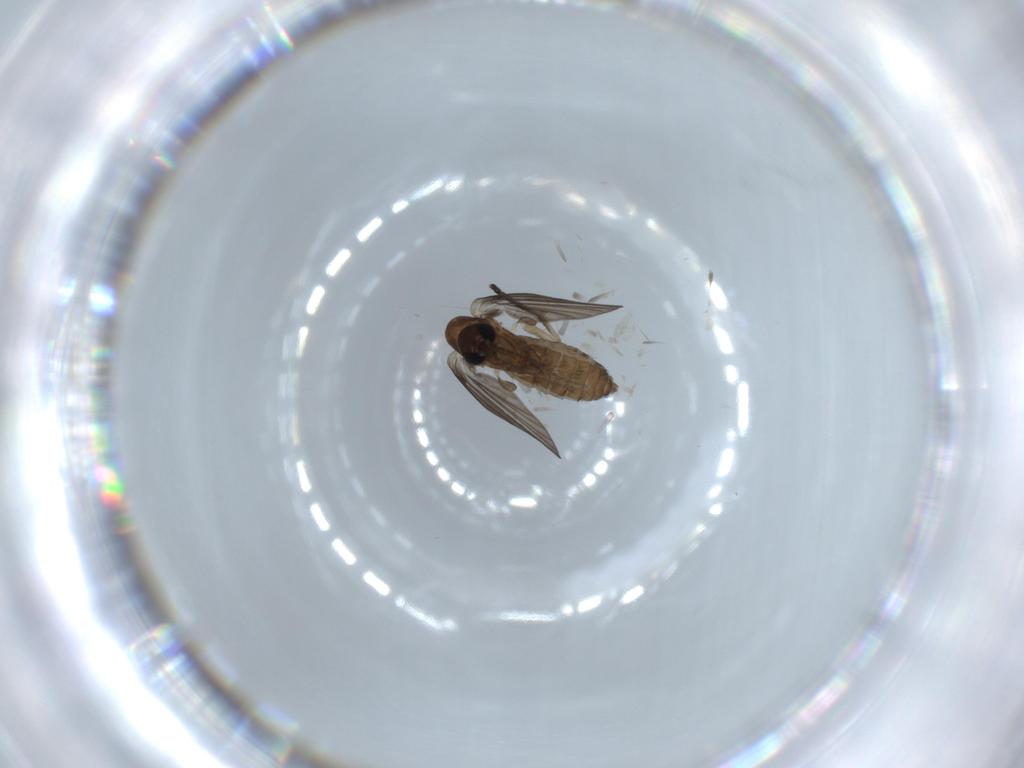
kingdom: Animalia
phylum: Arthropoda
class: Insecta
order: Diptera
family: Psychodidae
